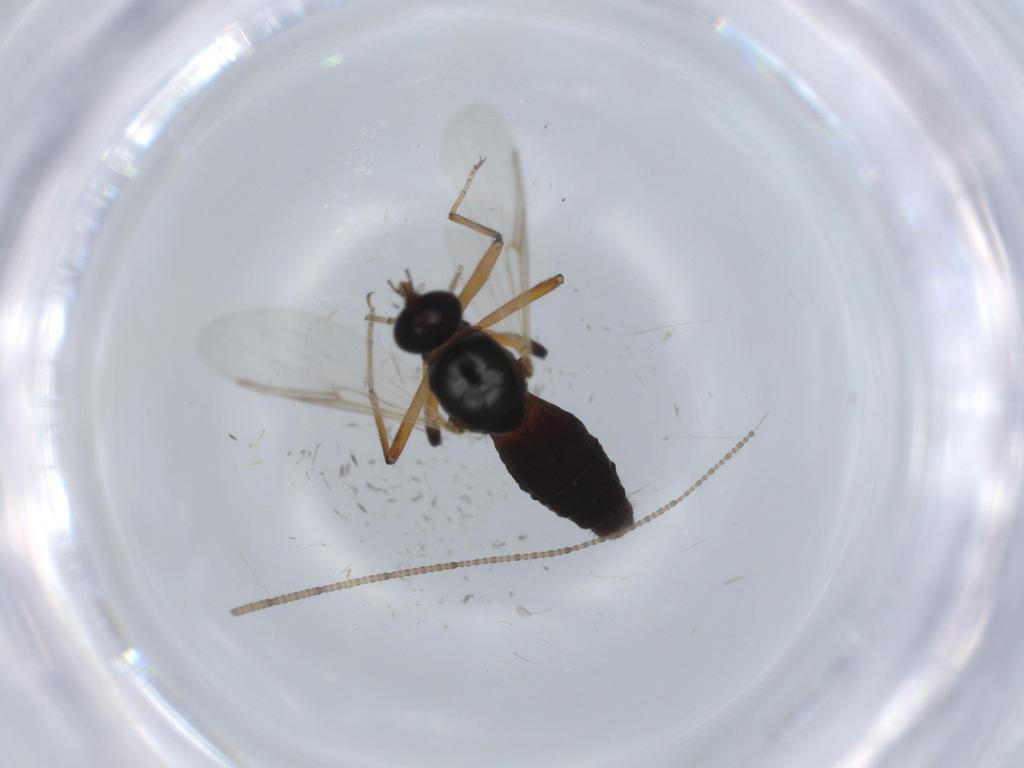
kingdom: Animalia
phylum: Arthropoda
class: Insecta
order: Diptera
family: Ceratopogonidae
